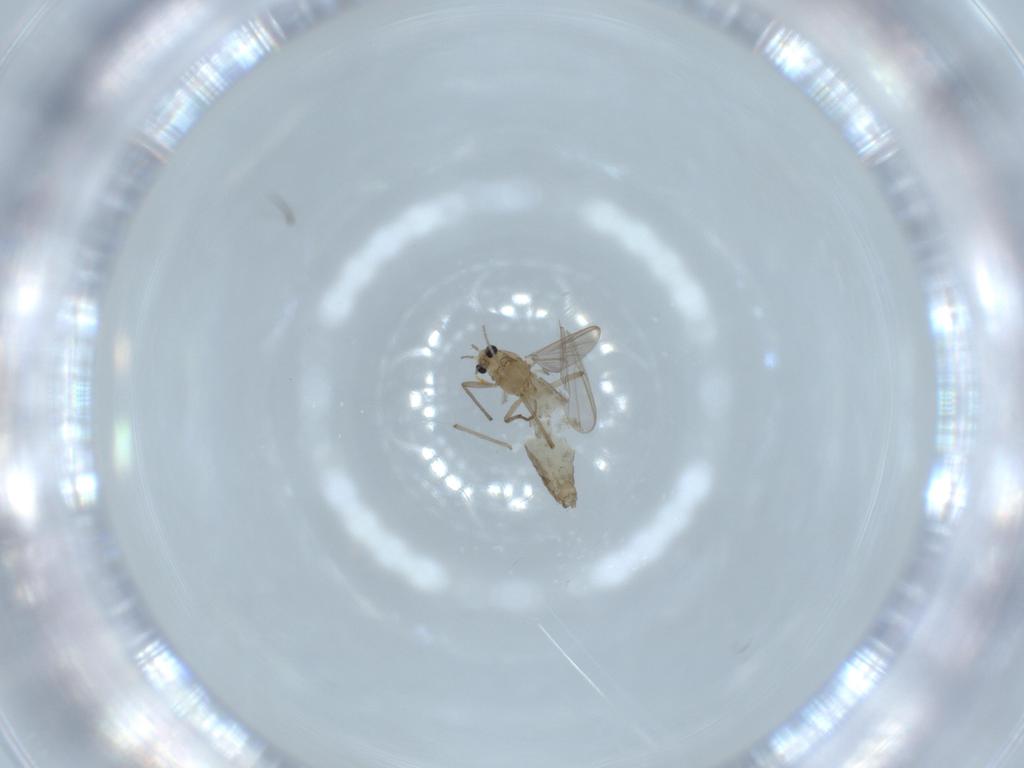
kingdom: Animalia
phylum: Arthropoda
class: Insecta
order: Diptera
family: Chironomidae
